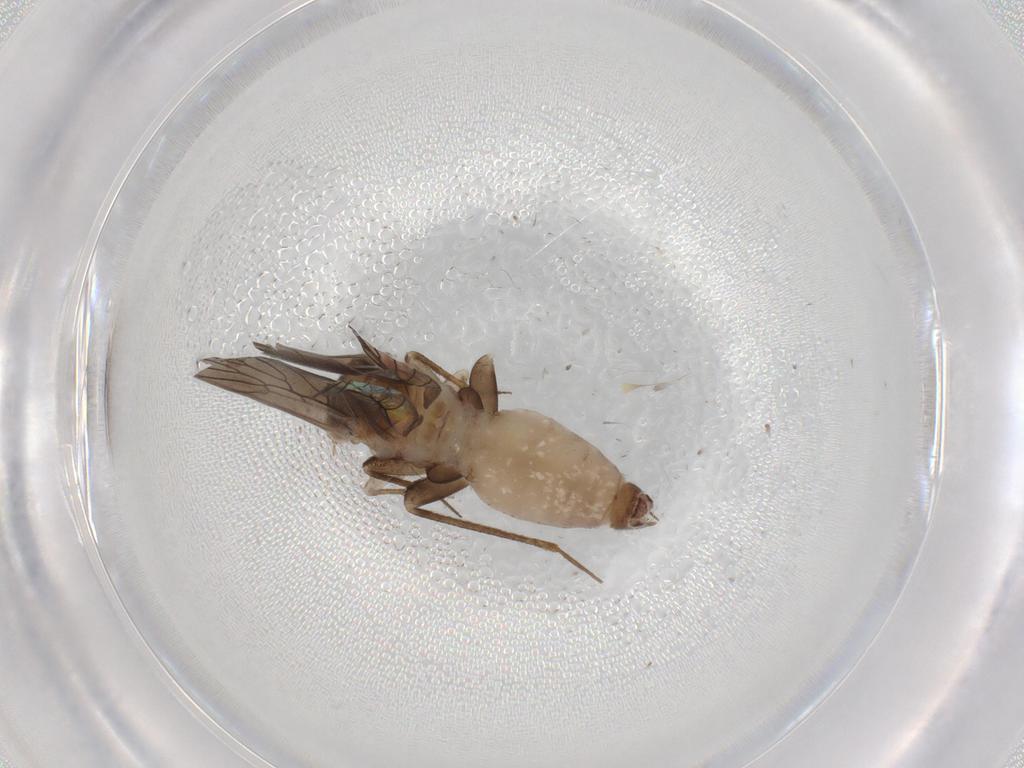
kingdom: Animalia
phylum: Arthropoda
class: Insecta
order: Psocodea
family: Lepidopsocidae
